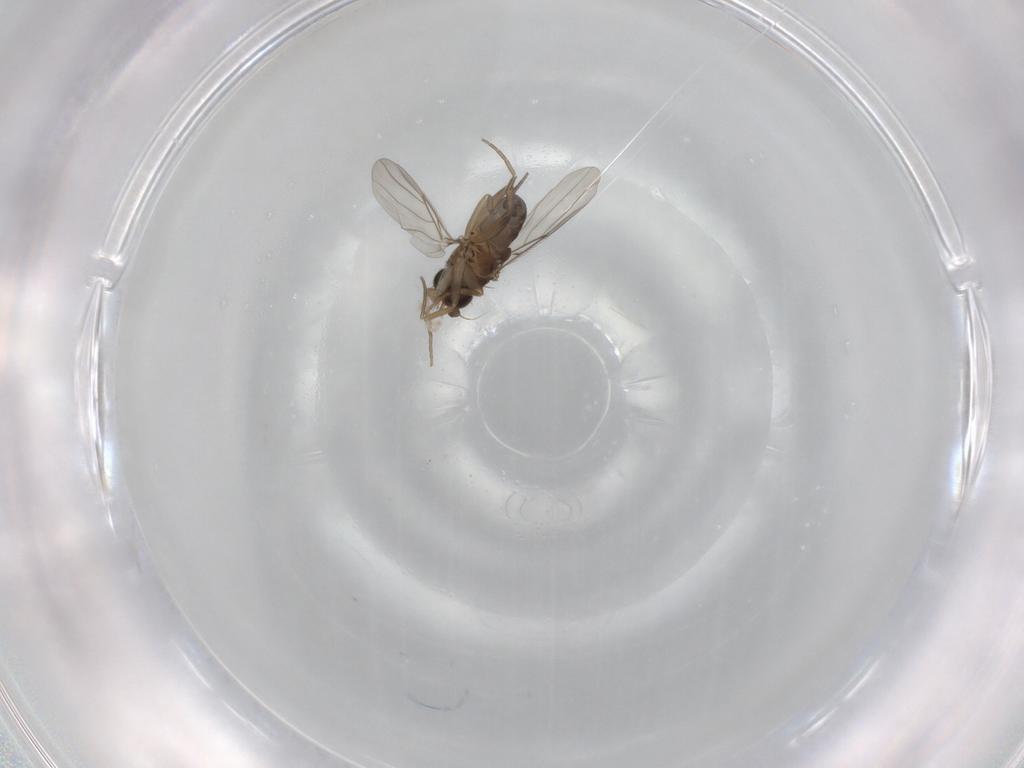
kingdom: Animalia
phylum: Arthropoda
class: Insecta
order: Diptera
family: Phoridae
